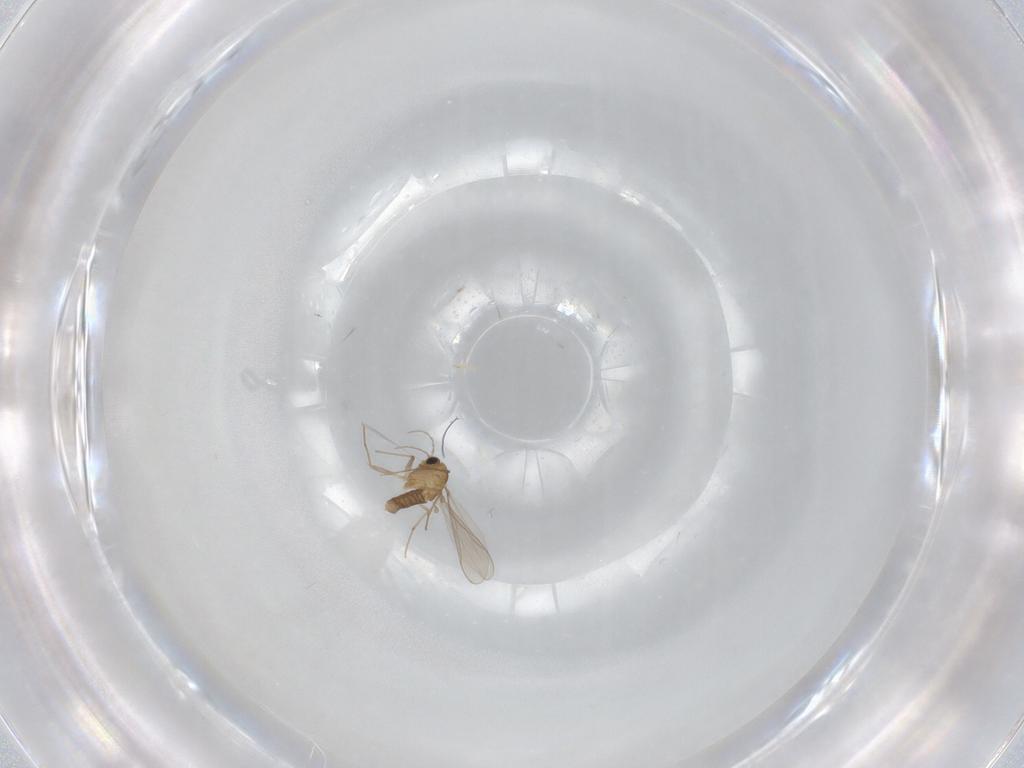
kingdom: Animalia
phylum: Arthropoda
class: Insecta
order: Diptera
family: Chironomidae
